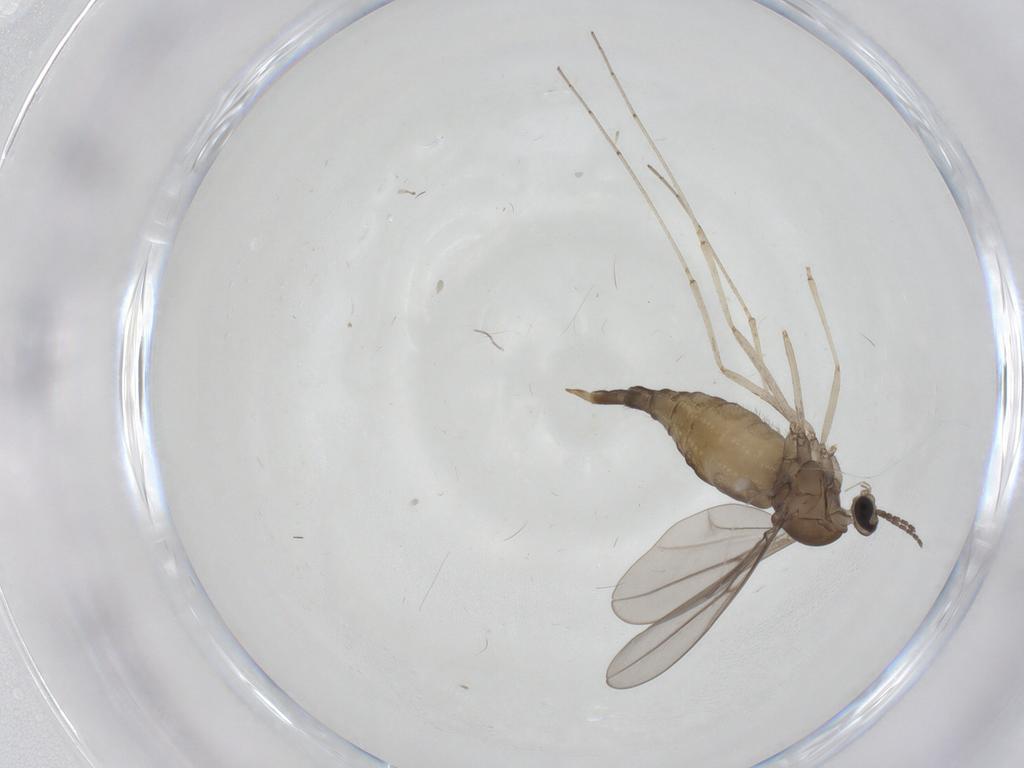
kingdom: Animalia
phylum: Arthropoda
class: Insecta
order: Diptera
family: Cecidomyiidae
